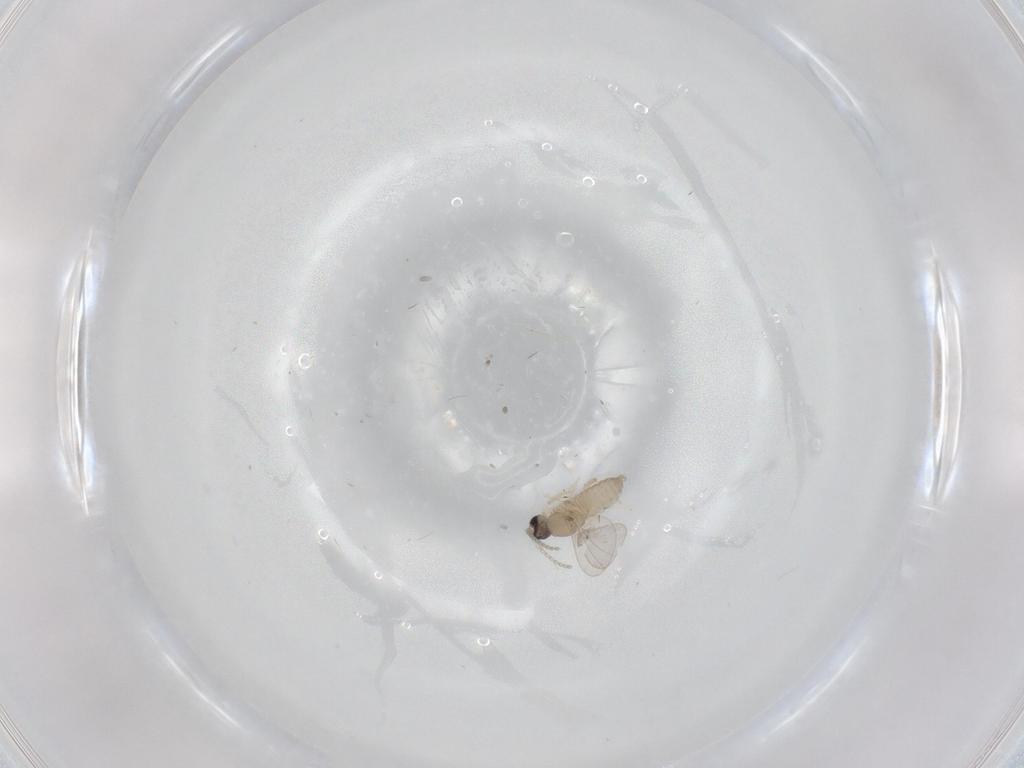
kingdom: Animalia
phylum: Arthropoda
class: Insecta
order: Diptera
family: Cecidomyiidae
